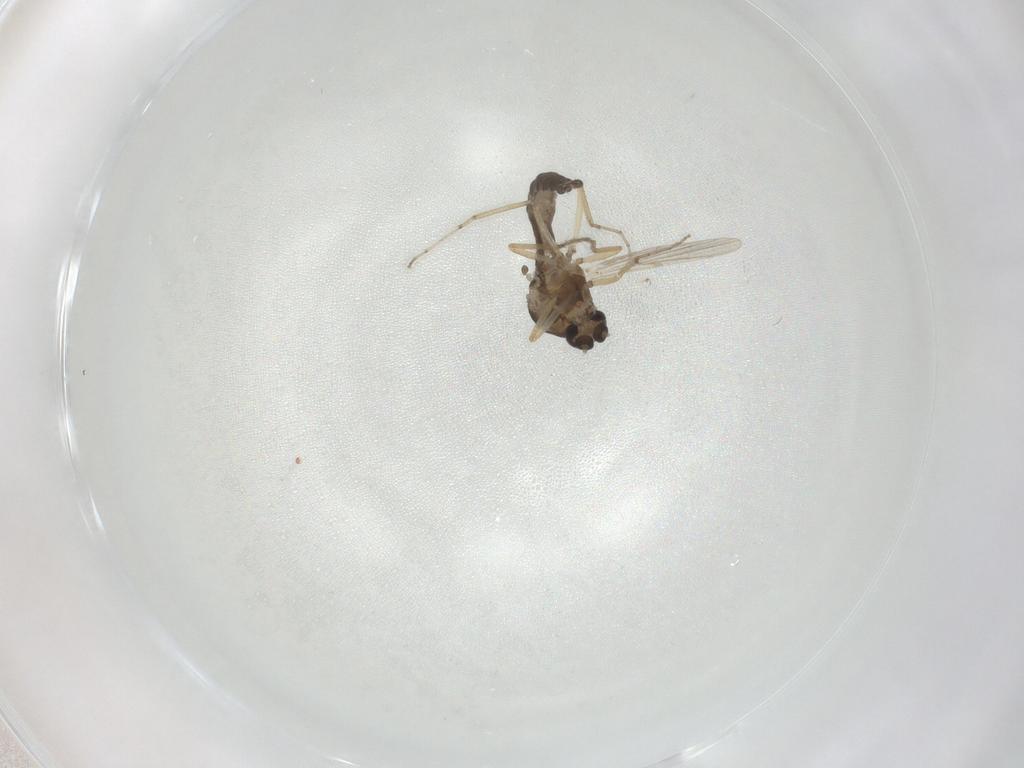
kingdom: Animalia
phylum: Arthropoda
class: Insecta
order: Diptera
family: Ceratopogonidae
